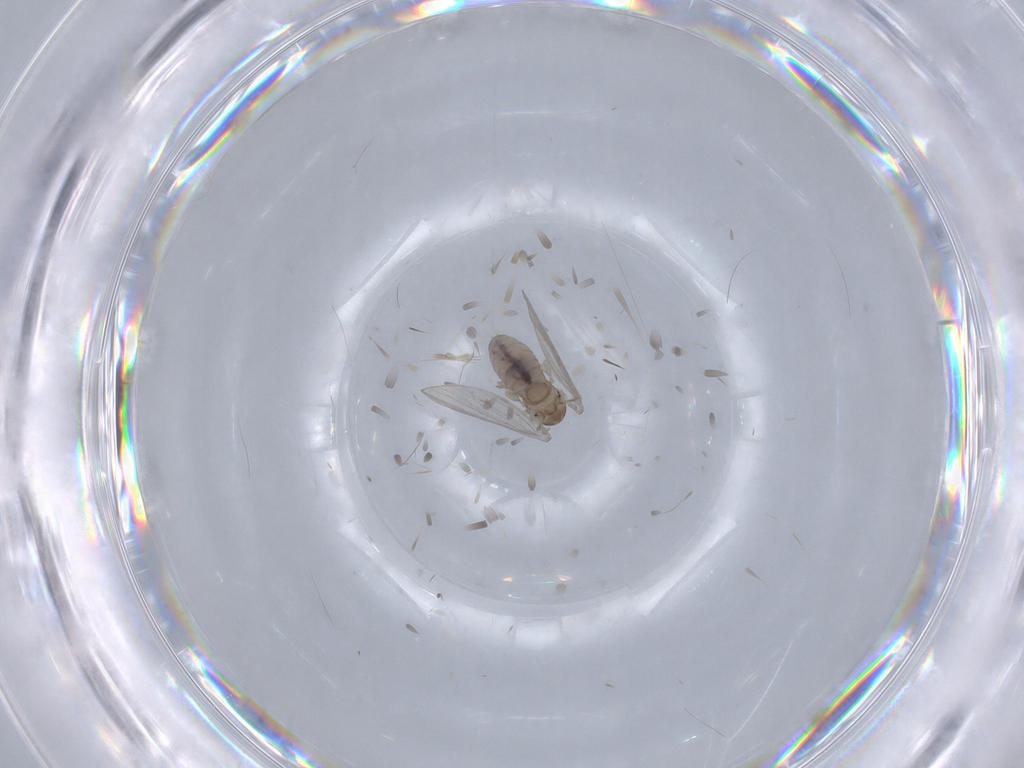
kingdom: Animalia
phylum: Arthropoda
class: Insecta
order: Diptera
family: Psychodidae
